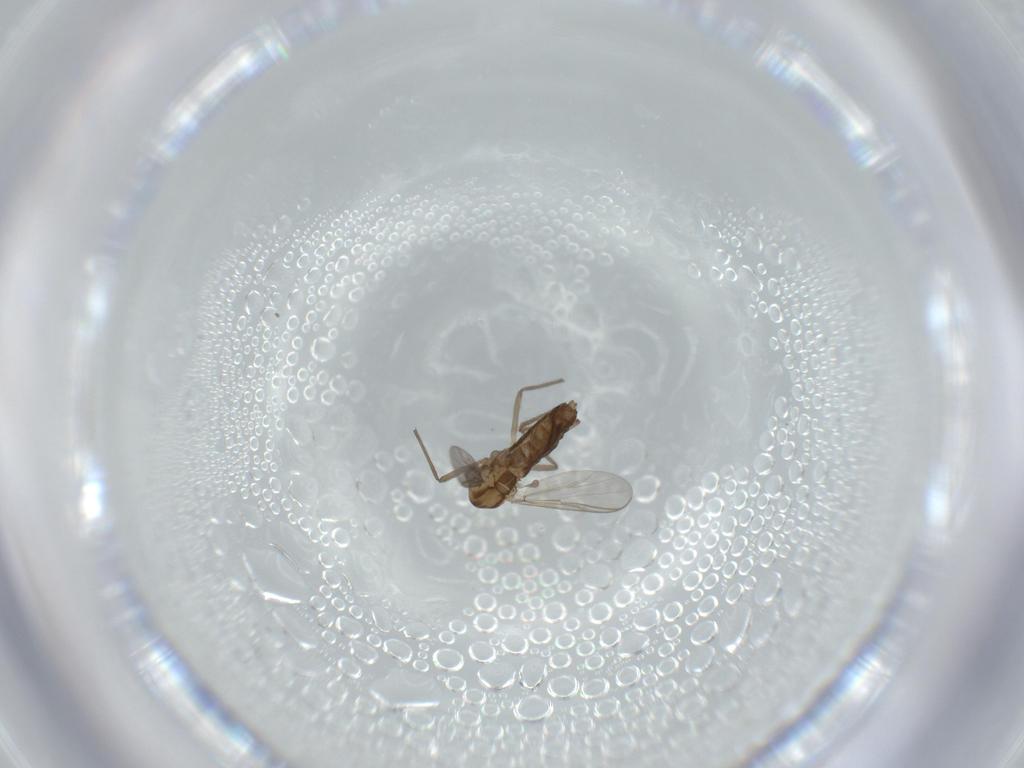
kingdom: Animalia
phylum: Arthropoda
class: Insecta
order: Diptera
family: Chironomidae
